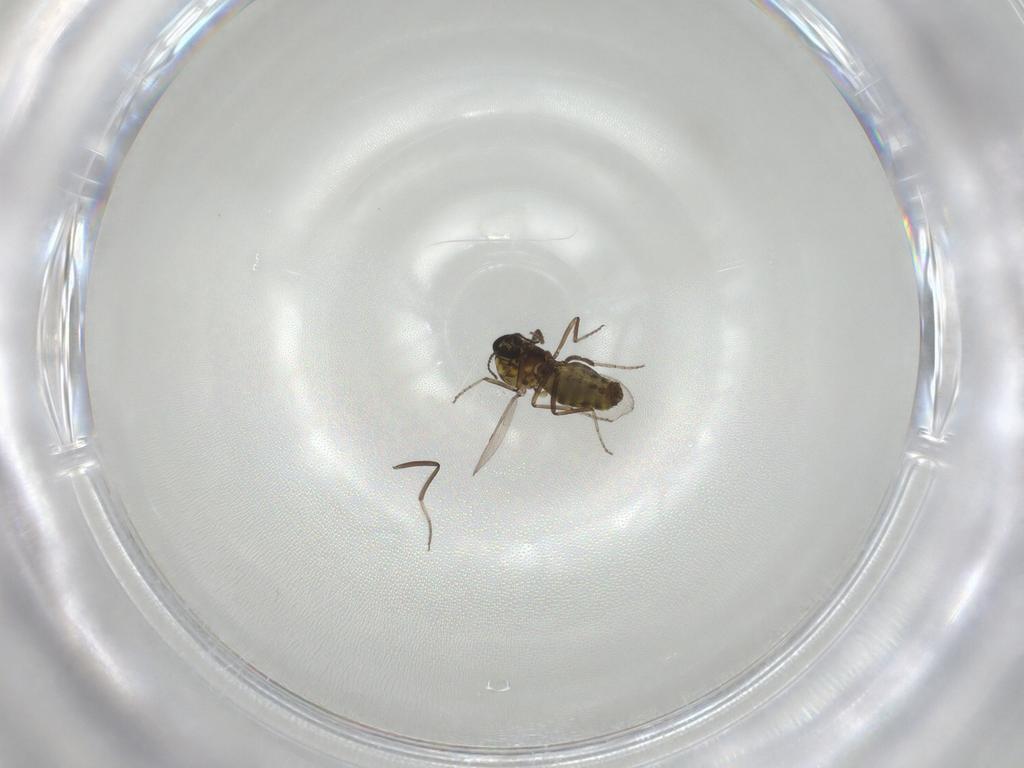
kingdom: Animalia
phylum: Arthropoda
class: Insecta
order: Diptera
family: Ceratopogonidae
